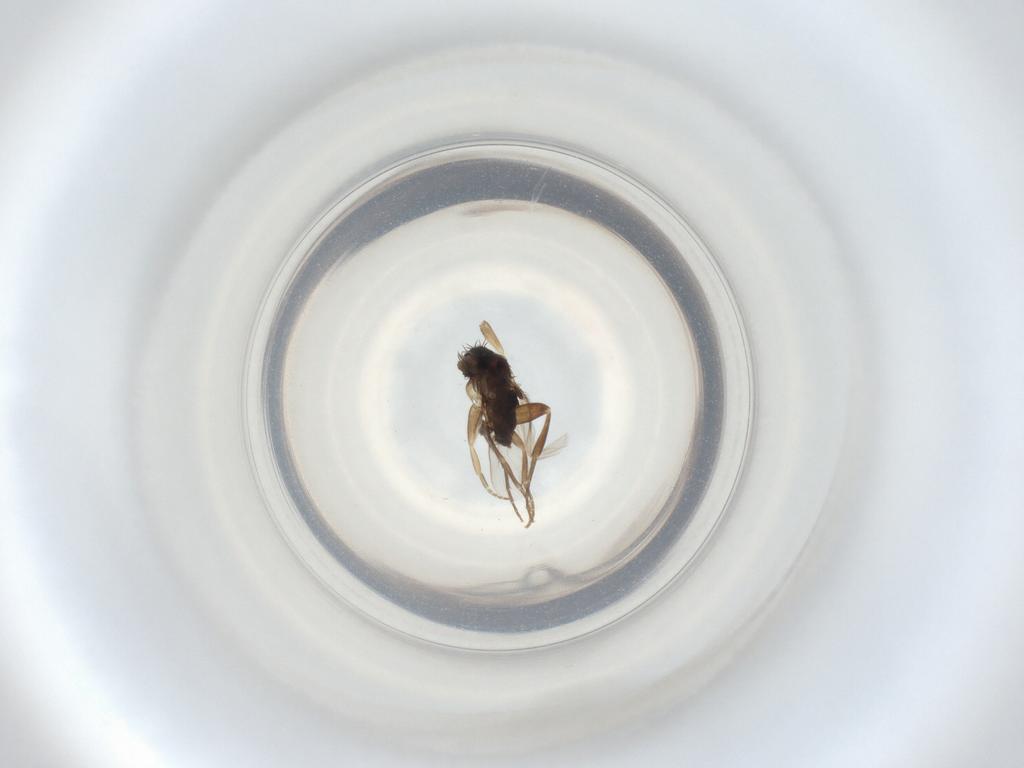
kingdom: Animalia
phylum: Arthropoda
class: Insecta
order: Diptera
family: Phoridae
